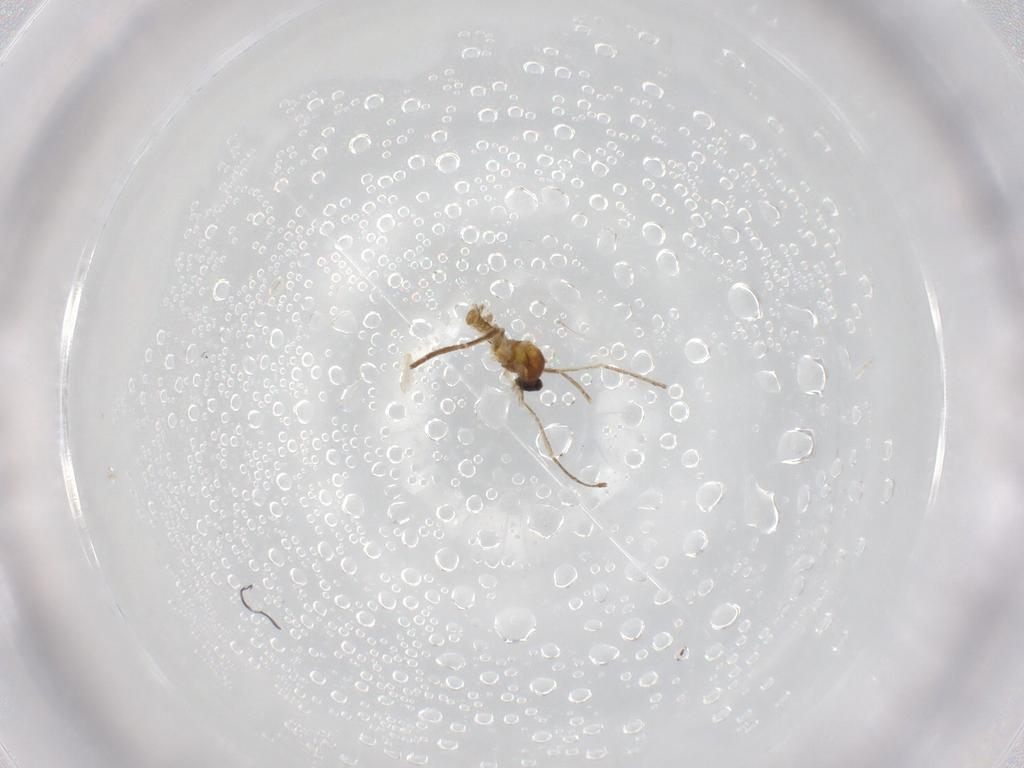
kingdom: Animalia
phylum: Arthropoda
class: Insecta
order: Diptera
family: Cecidomyiidae
